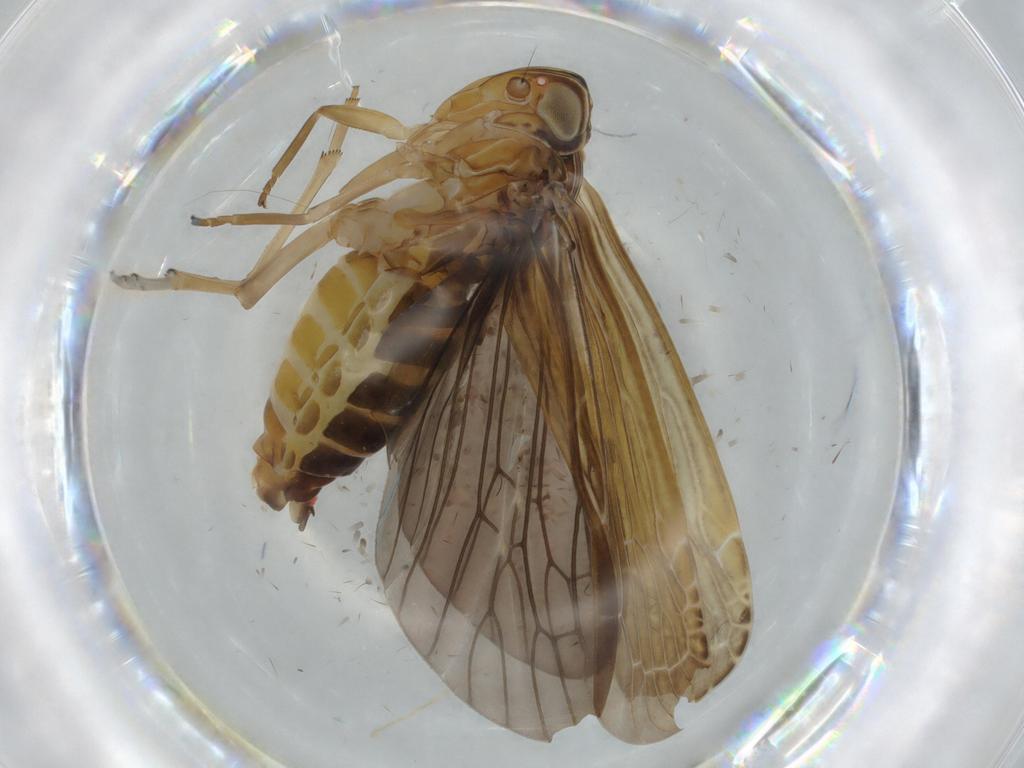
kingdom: Animalia
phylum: Arthropoda
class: Insecta
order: Hemiptera
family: Achilidae
